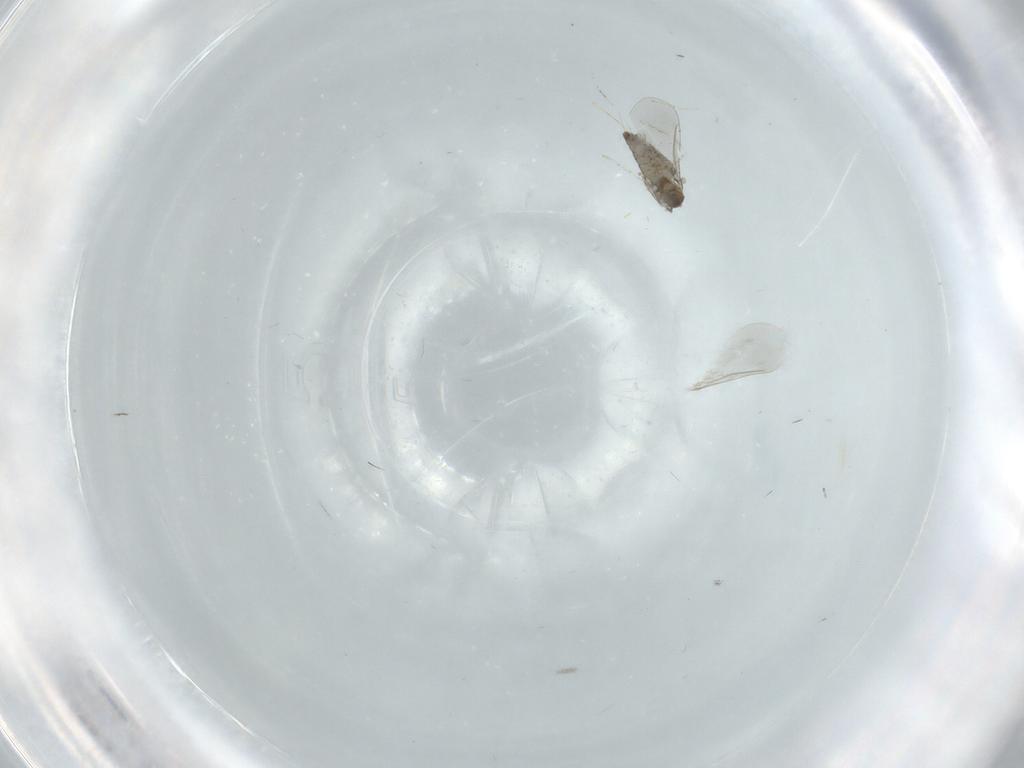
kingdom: Animalia
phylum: Arthropoda
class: Insecta
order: Diptera
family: Cecidomyiidae
